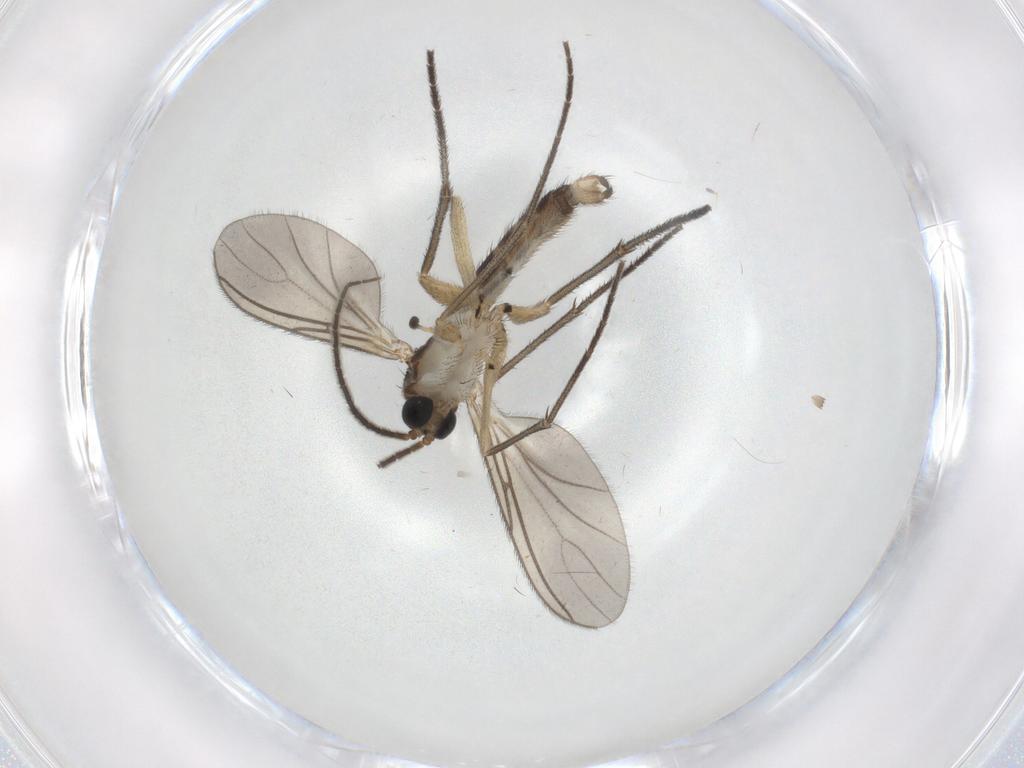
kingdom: Animalia
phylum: Arthropoda
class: Insecta
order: Diptera
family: Sciaridae
